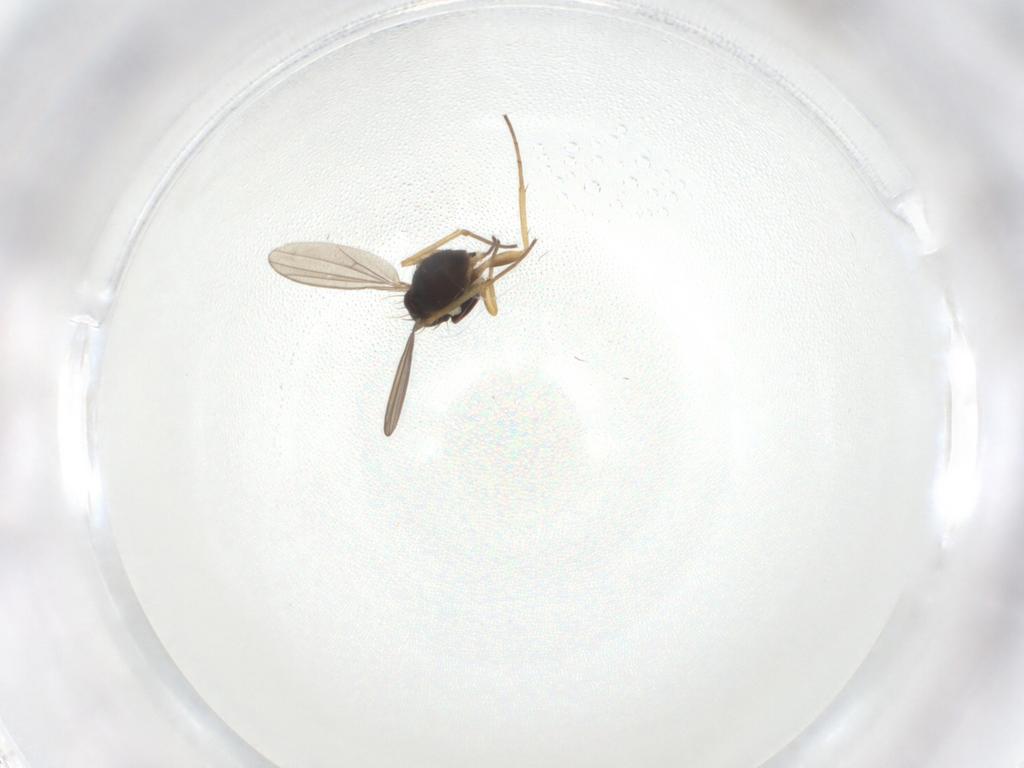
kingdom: Animalia
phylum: Arthropoda
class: Insecta
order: Diptera
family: Dolichopodidae
